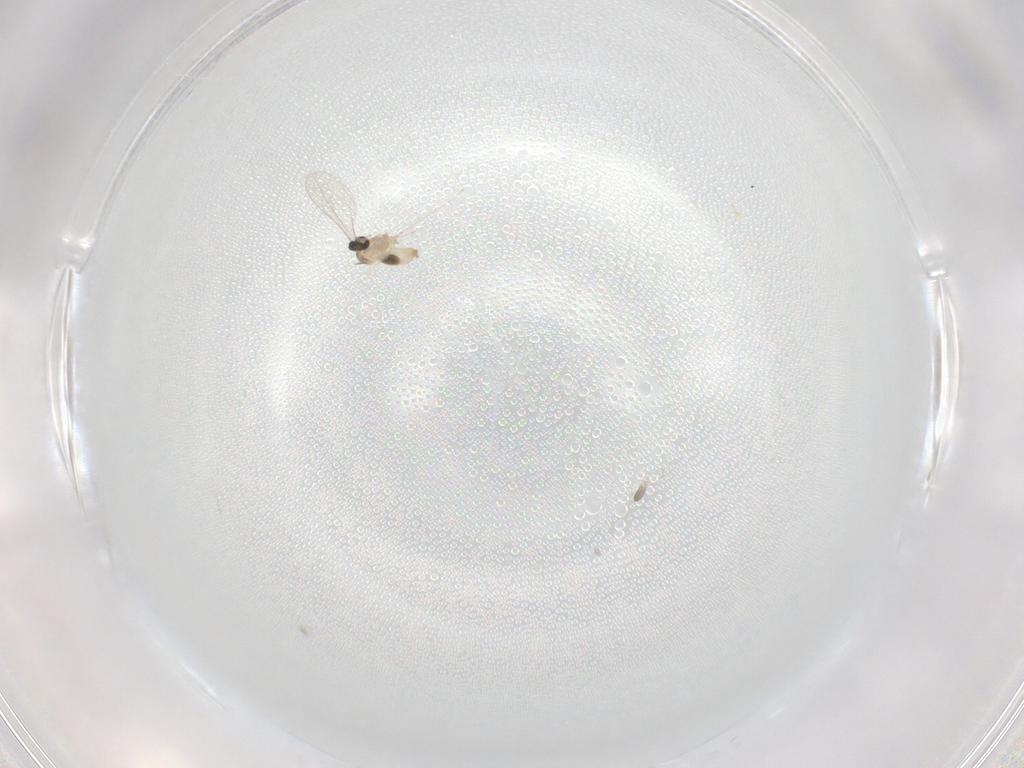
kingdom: Animalia
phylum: Arthropoda
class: Insecta
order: Diptera
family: Cecidomyiidae
